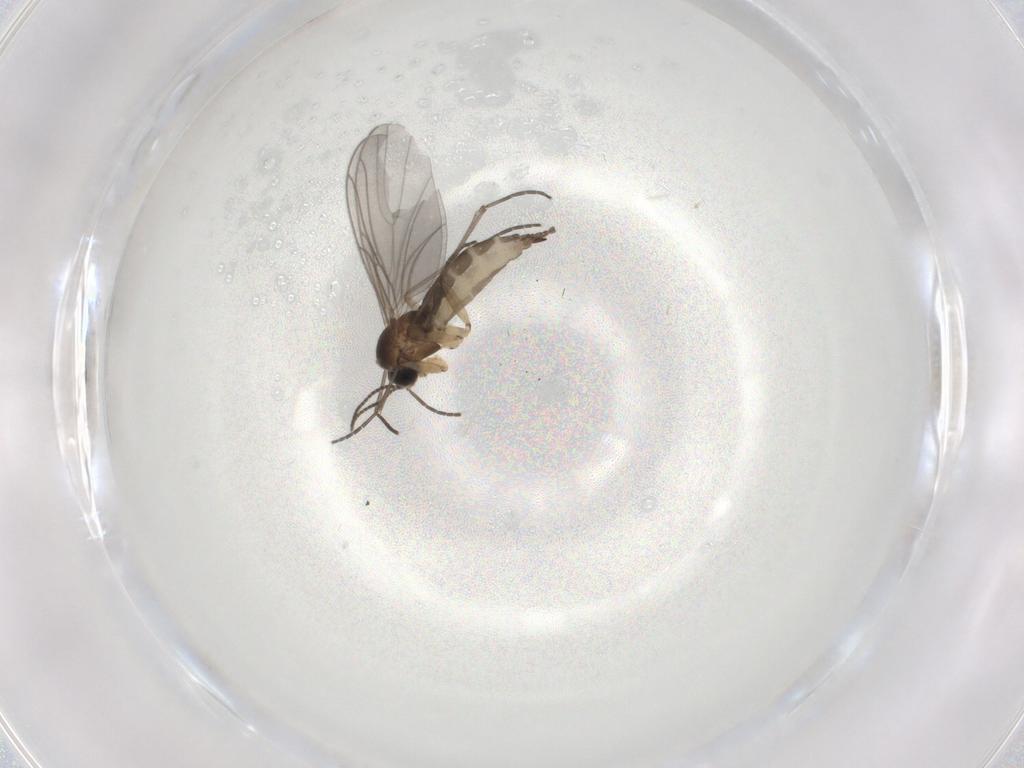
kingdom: Animalia
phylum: Arthropoda
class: Insecta
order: Diptera
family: Sciaridae
